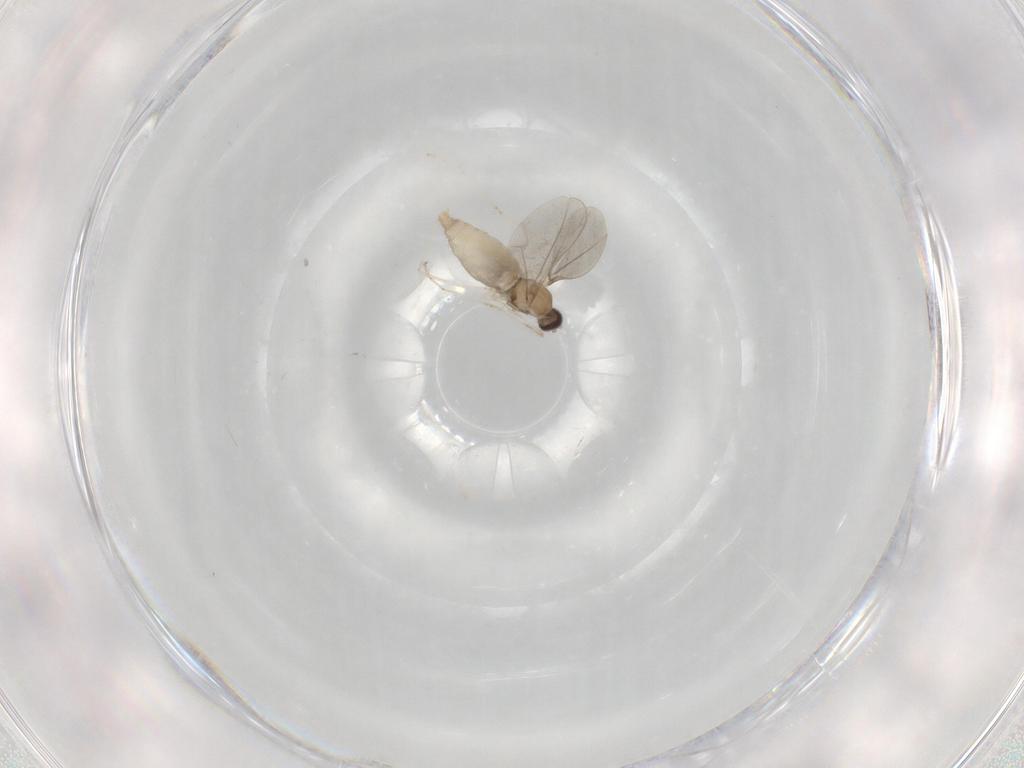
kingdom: Animalia
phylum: Arthropoda
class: Insecta
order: Diptera
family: Cecidomyiidae
